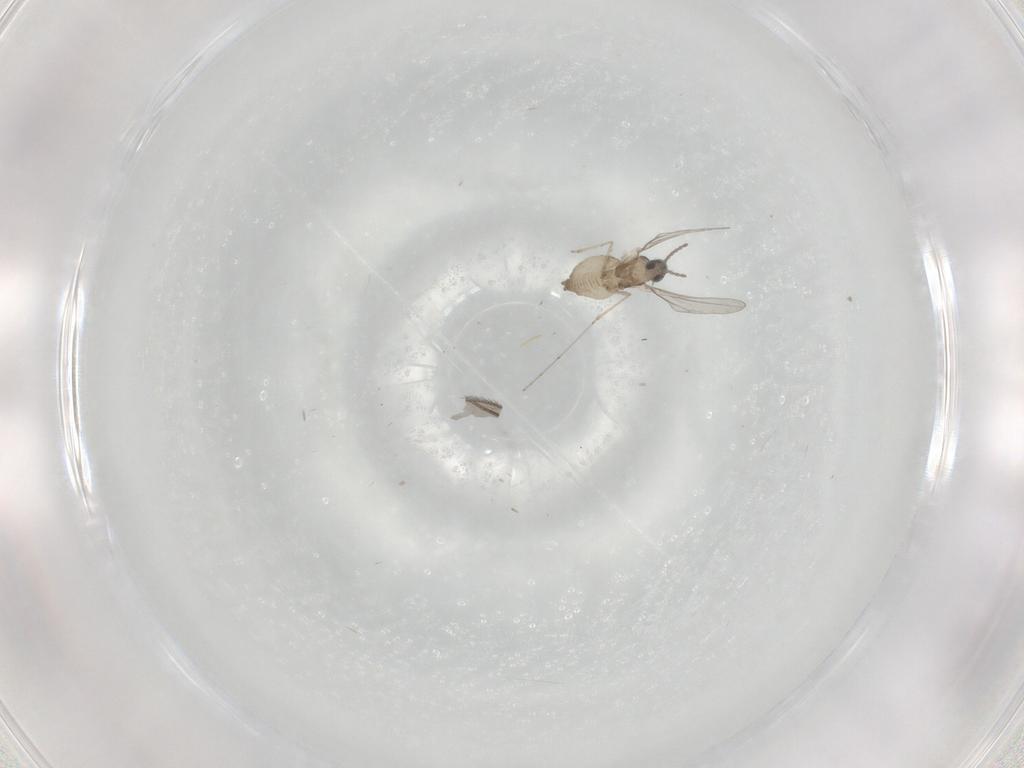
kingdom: Animalia
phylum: Arthropoda
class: Insecta
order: Diptera
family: Cecidomyiidae
